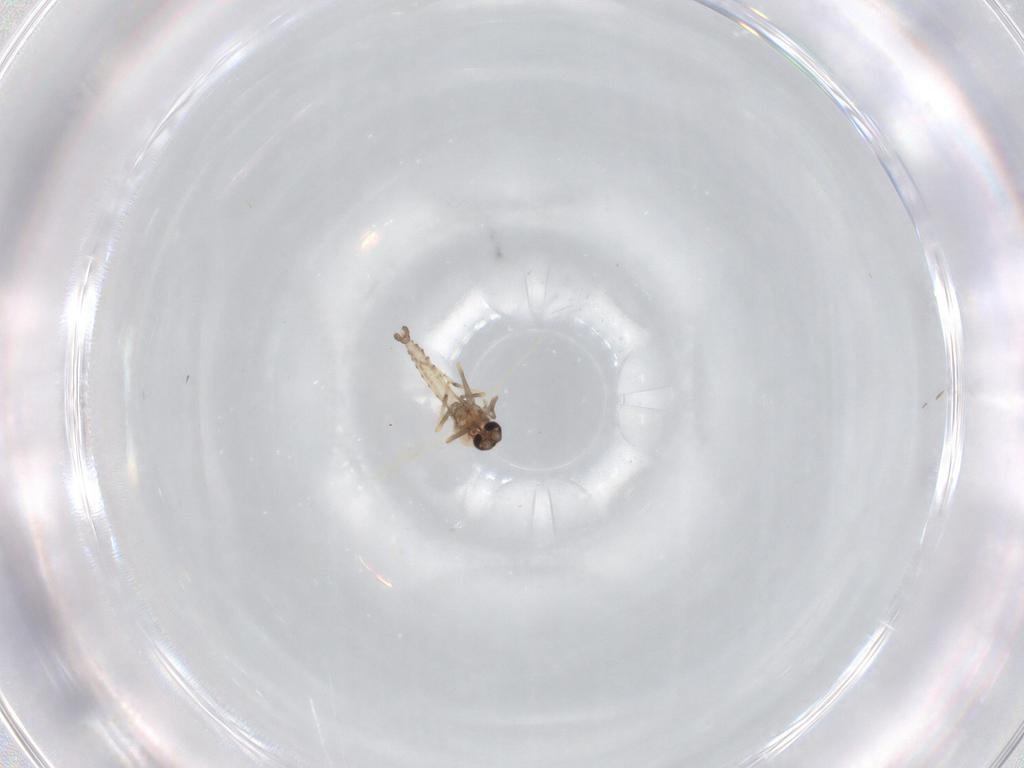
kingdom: Animalia
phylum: Arthropoda
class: Insecta
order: Diptera
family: Ceratopogonidae
